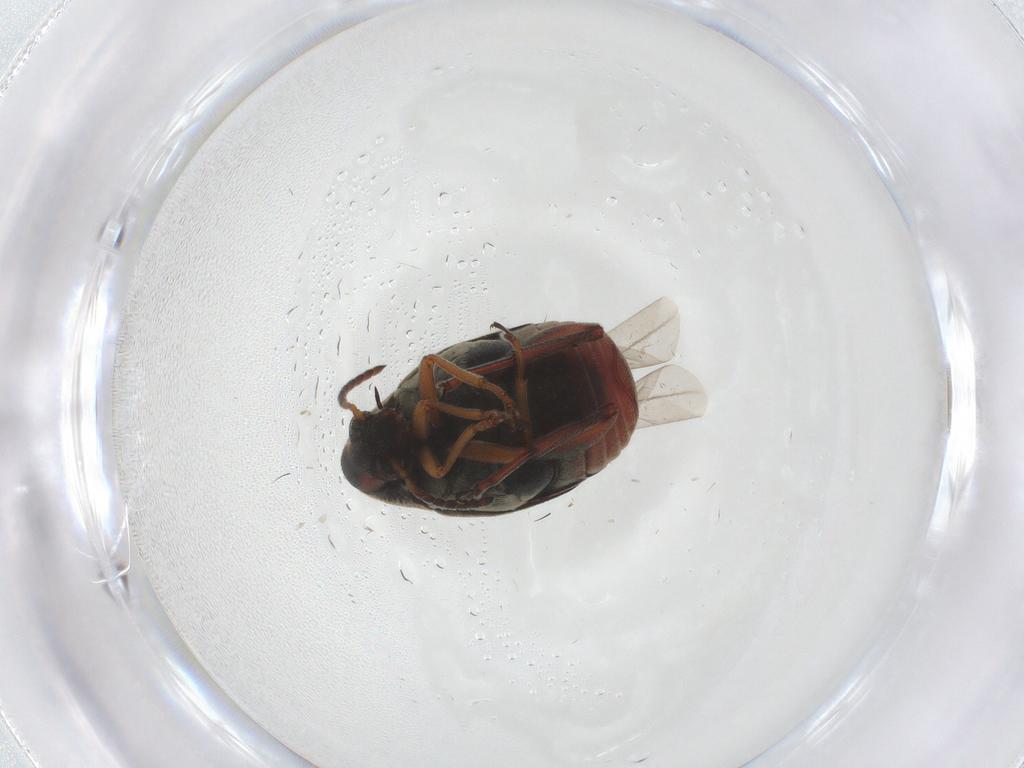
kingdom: Animalia
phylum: Arthropoda
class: Insecta
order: Coleoptera
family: Chrysomelidae
